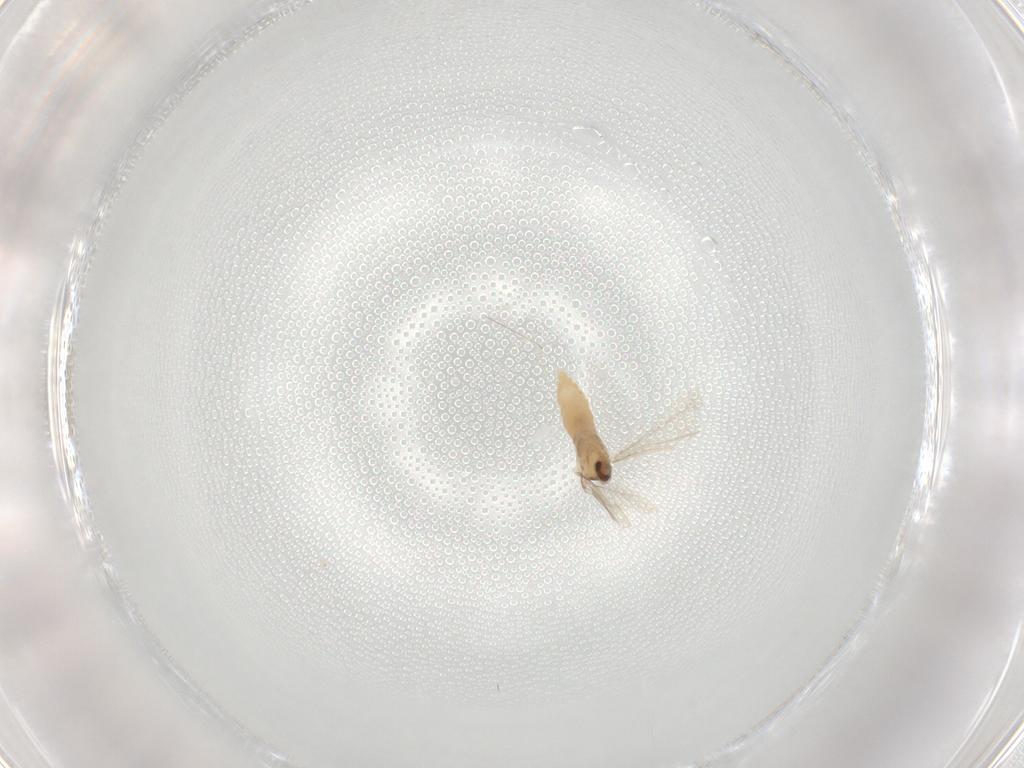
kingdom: Animalia
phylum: Arthropoda
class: Insecta
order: Diptera
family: Cecidomyiidae
